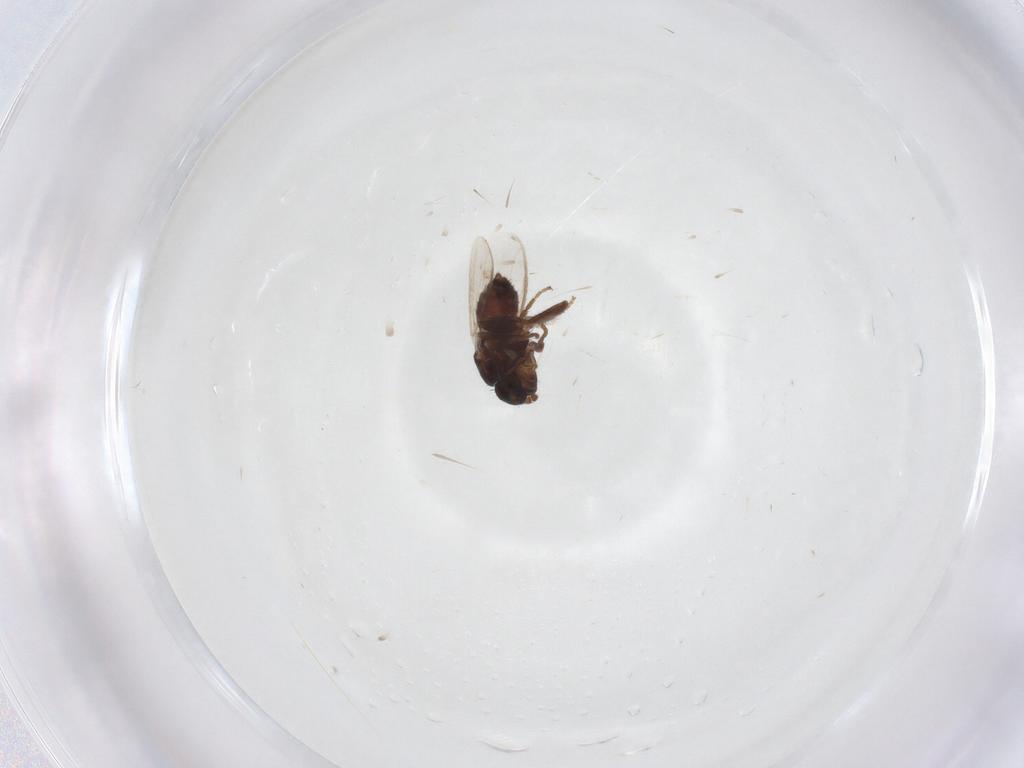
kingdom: Animalia
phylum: Arthropoda
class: Insecta
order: Diptera
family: Sphaeroceridae
